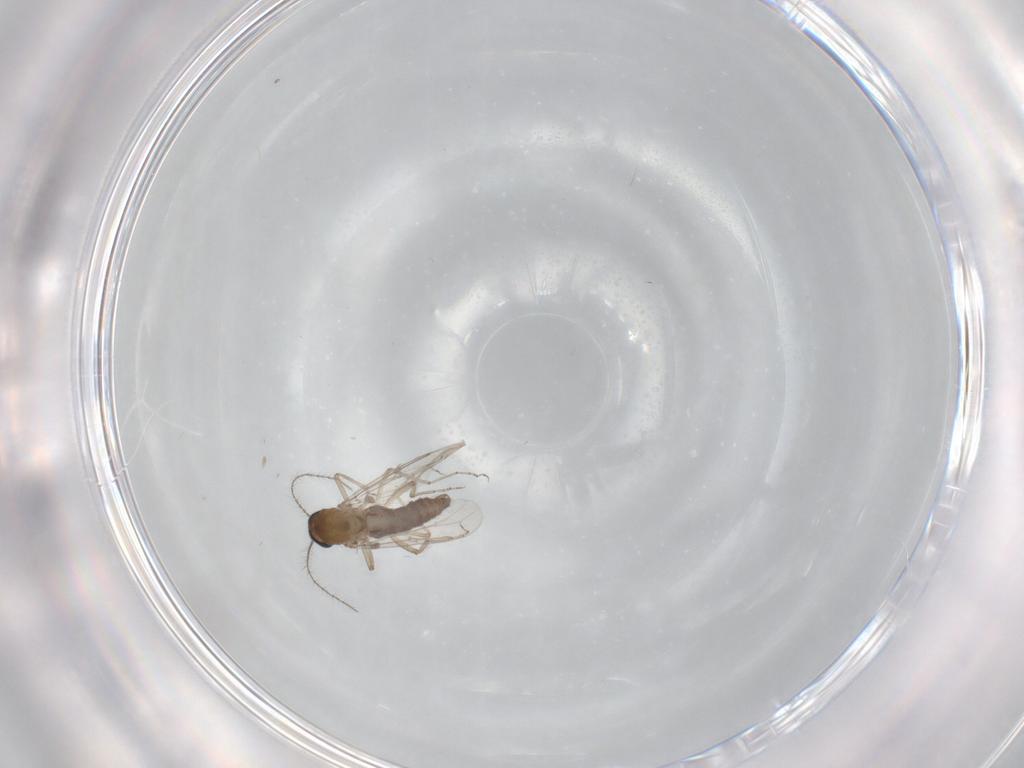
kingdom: Animalia
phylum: Arthropoda
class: Insecta
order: Diptera
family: Ceratopogonidae
